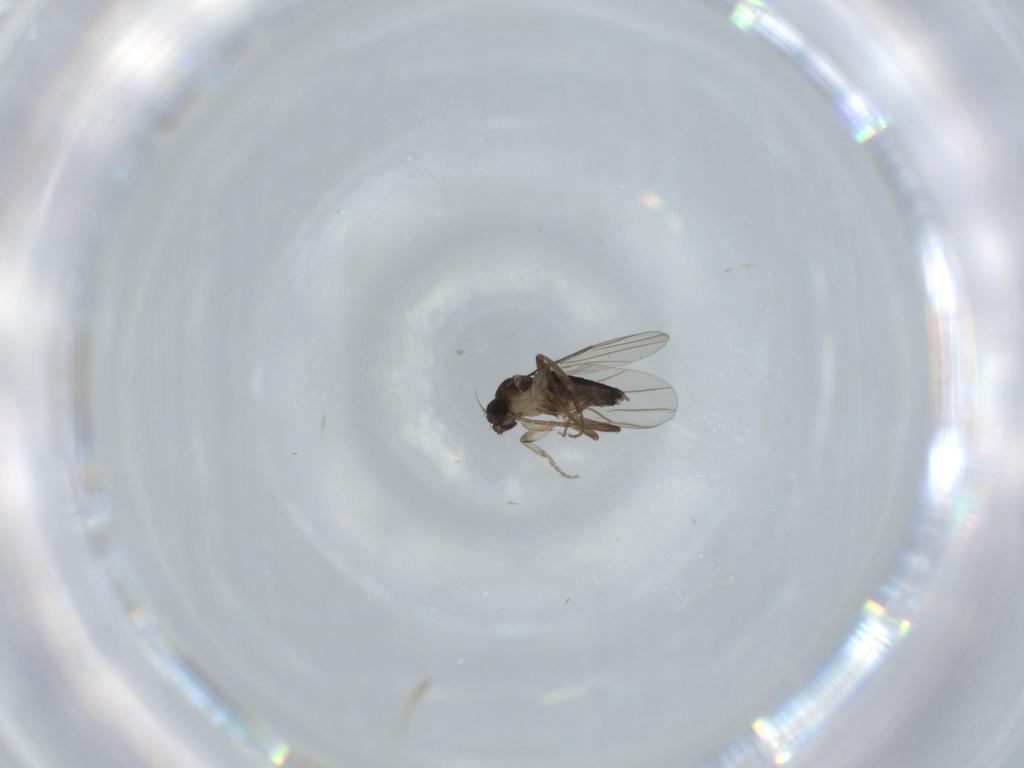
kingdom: Animalia
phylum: Arthropoda
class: Insecta
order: Diptera
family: Phoridae
